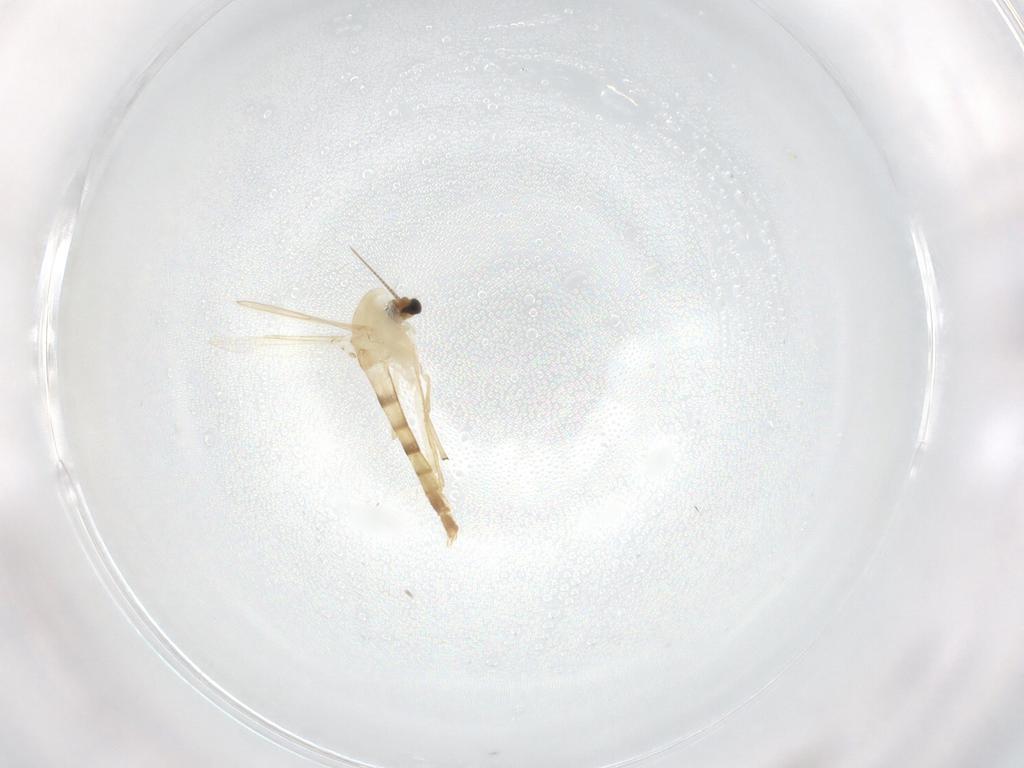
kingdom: Animalia
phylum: Arthropoda
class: Insecta
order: Diptera
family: Chironomidae
